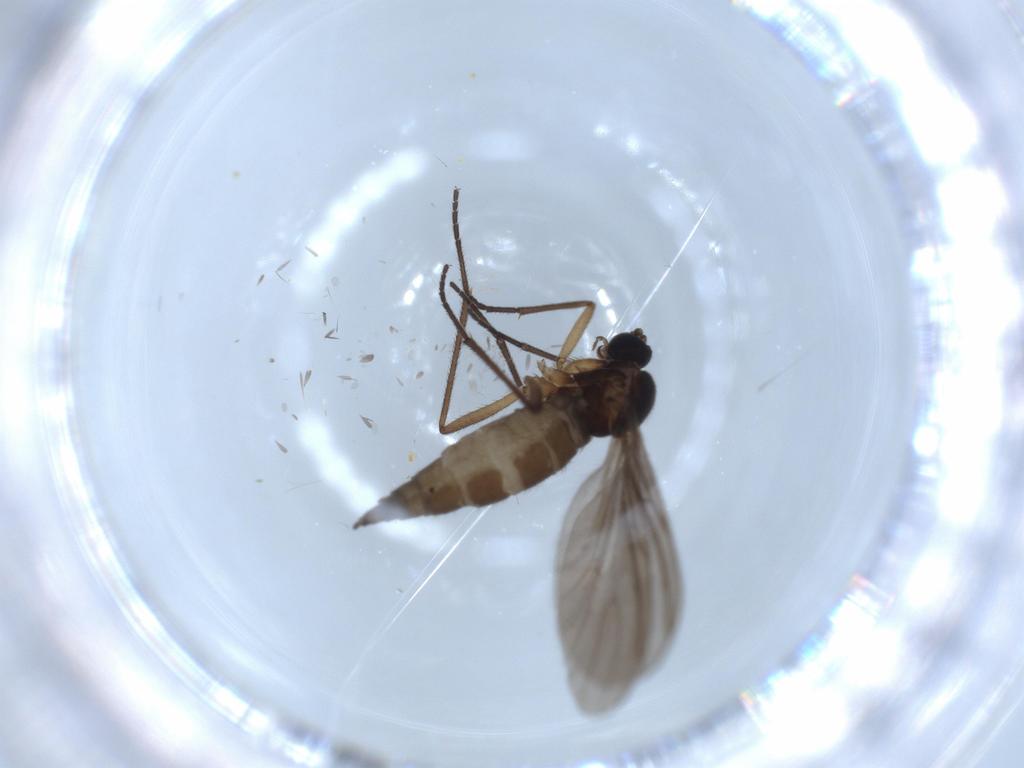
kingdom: Animalia
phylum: Arthropoda
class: Insecta
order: Diptera
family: Sciaridae
